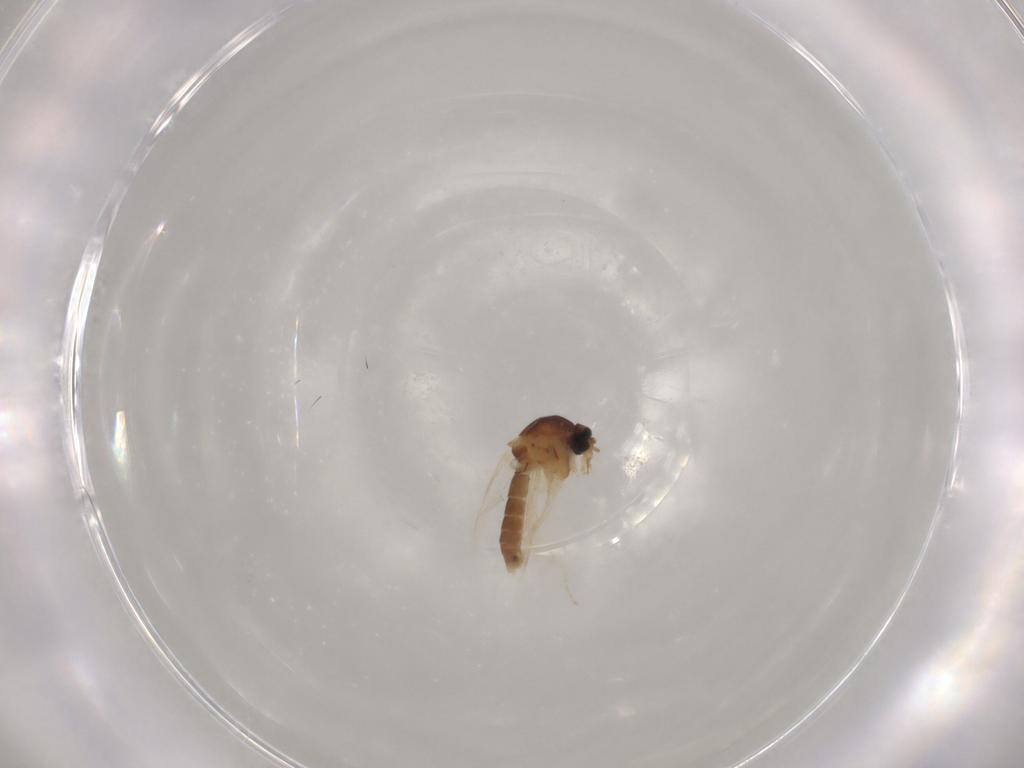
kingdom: Animalia
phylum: Arthropoda
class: Insecta
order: Diptera
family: Ceratopogonidae
